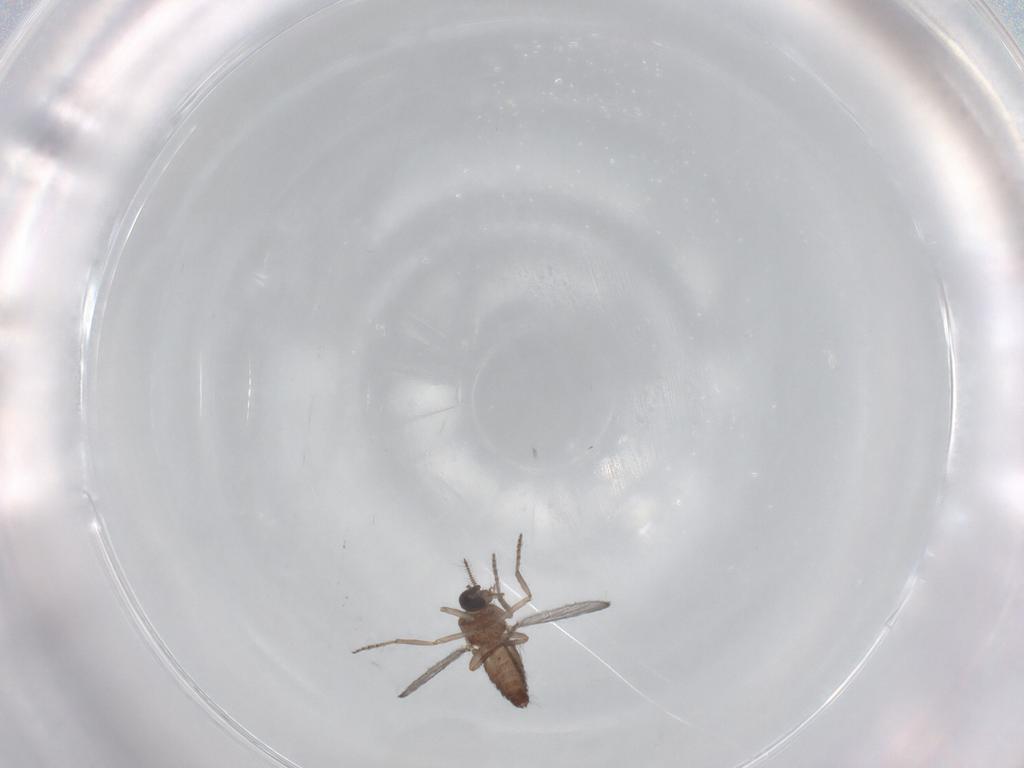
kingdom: Animalia
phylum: Arthropoda
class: Insecta
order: Diptera
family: Ceratopogonidae
